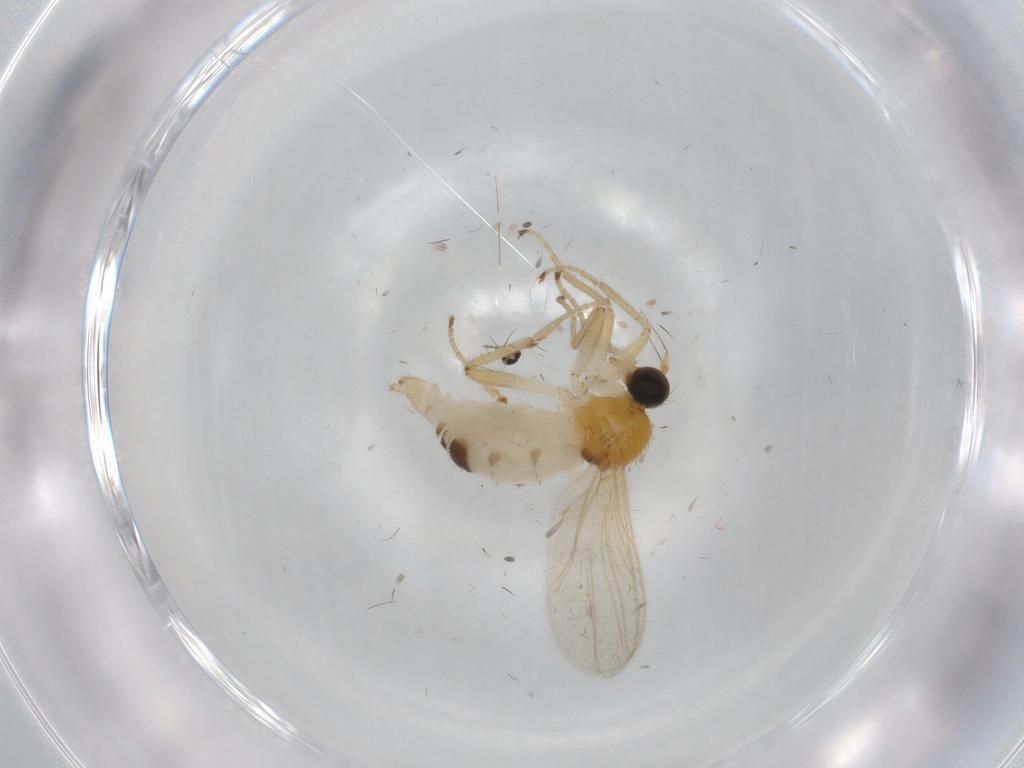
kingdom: Animalia
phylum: Arthropoda
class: Insecta
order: Diptera
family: Hybotidae
